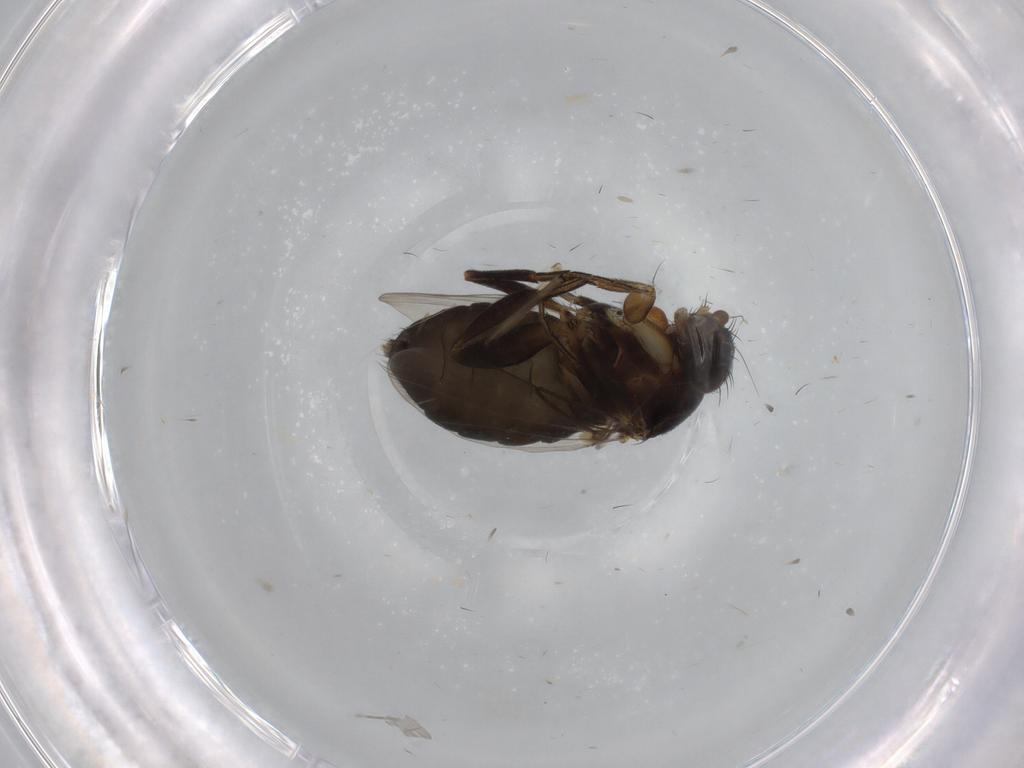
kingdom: Animalia
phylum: Arthropoda
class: Insecta
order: Diptera
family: Phoridae
